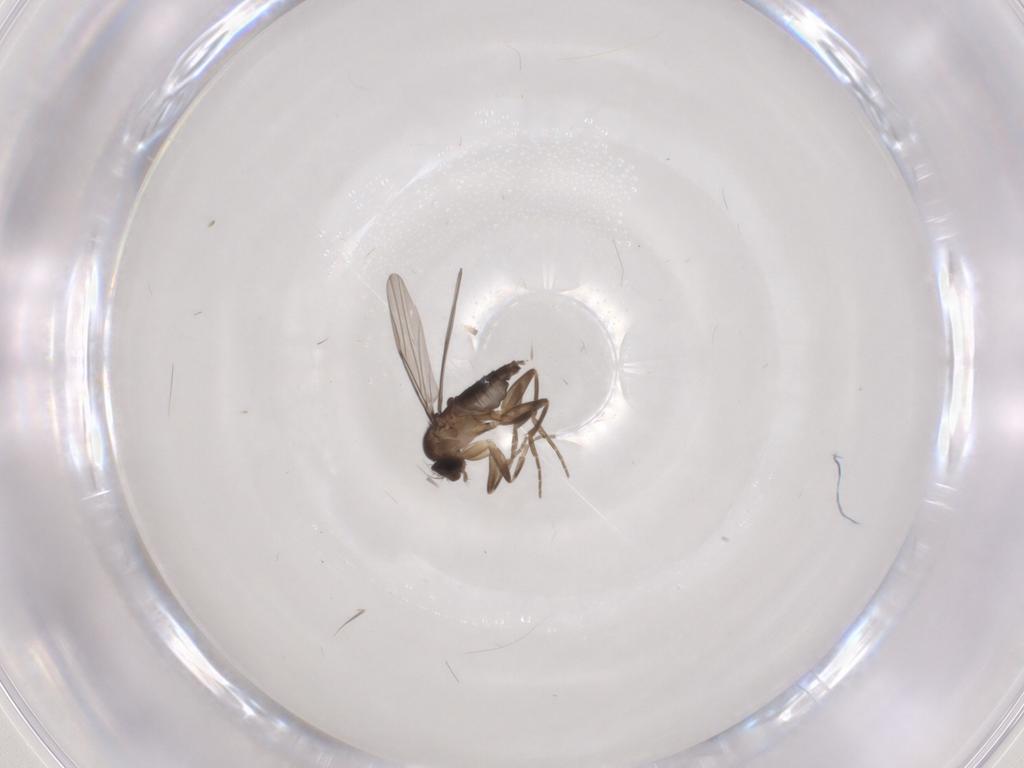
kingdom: Animalia
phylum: Arthropoda
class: Insecta
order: Diptera
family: Phoridae
